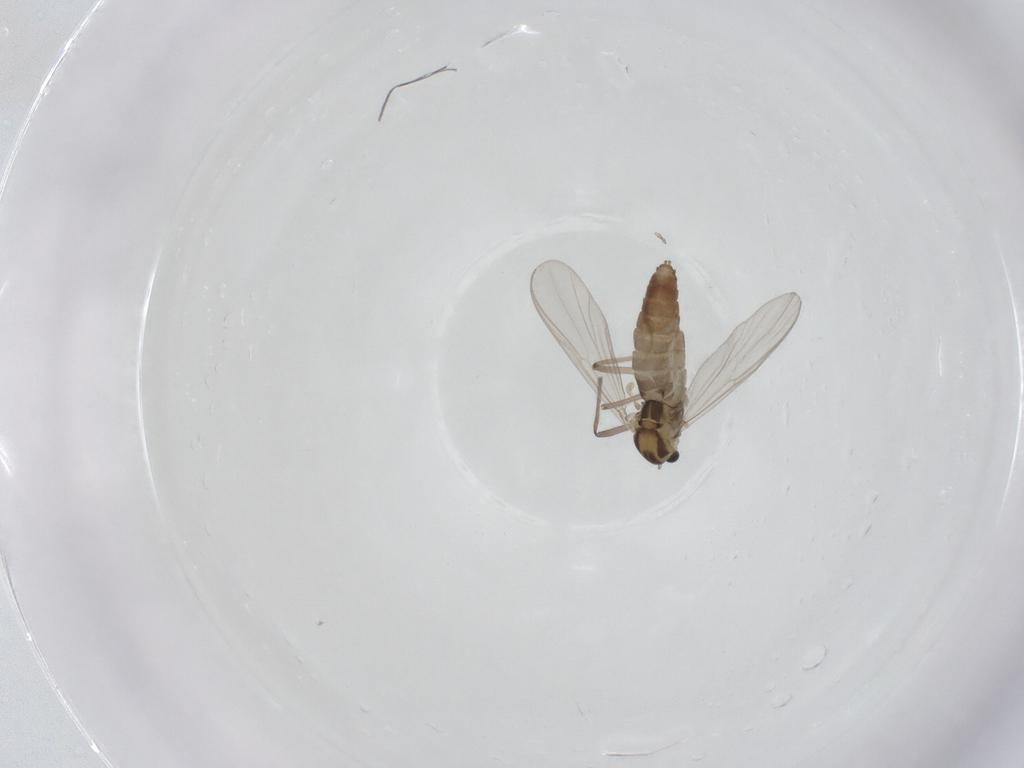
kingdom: Animalia
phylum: Arthropoda
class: Insecta
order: Diptera
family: Chironomidae
